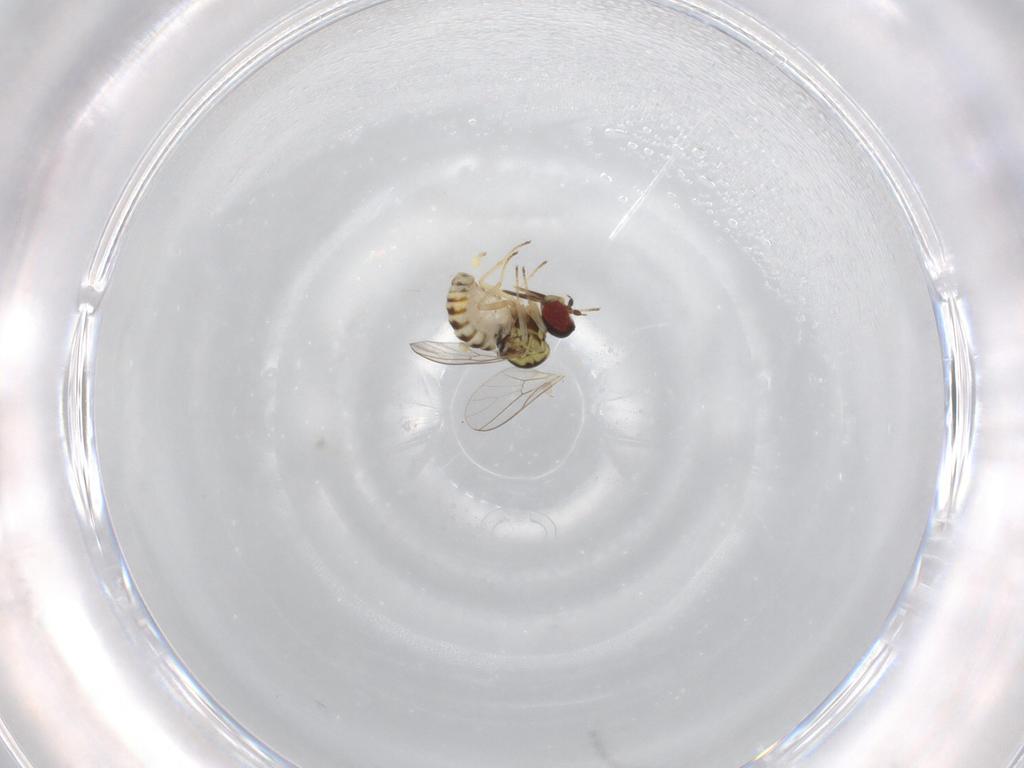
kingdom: Animalia
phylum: Arthropoda
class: Insecta
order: Diptera
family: Bombyliidae
